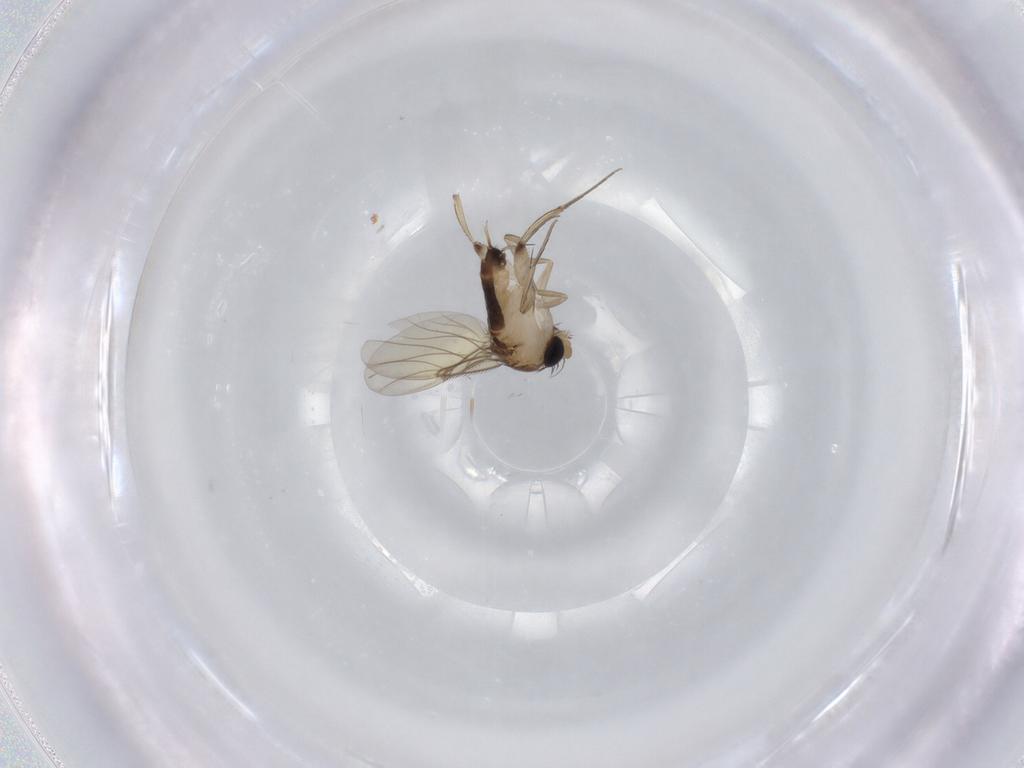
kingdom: Animalia
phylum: Arthropoda
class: Insecta
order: Diptera
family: Phoridae
